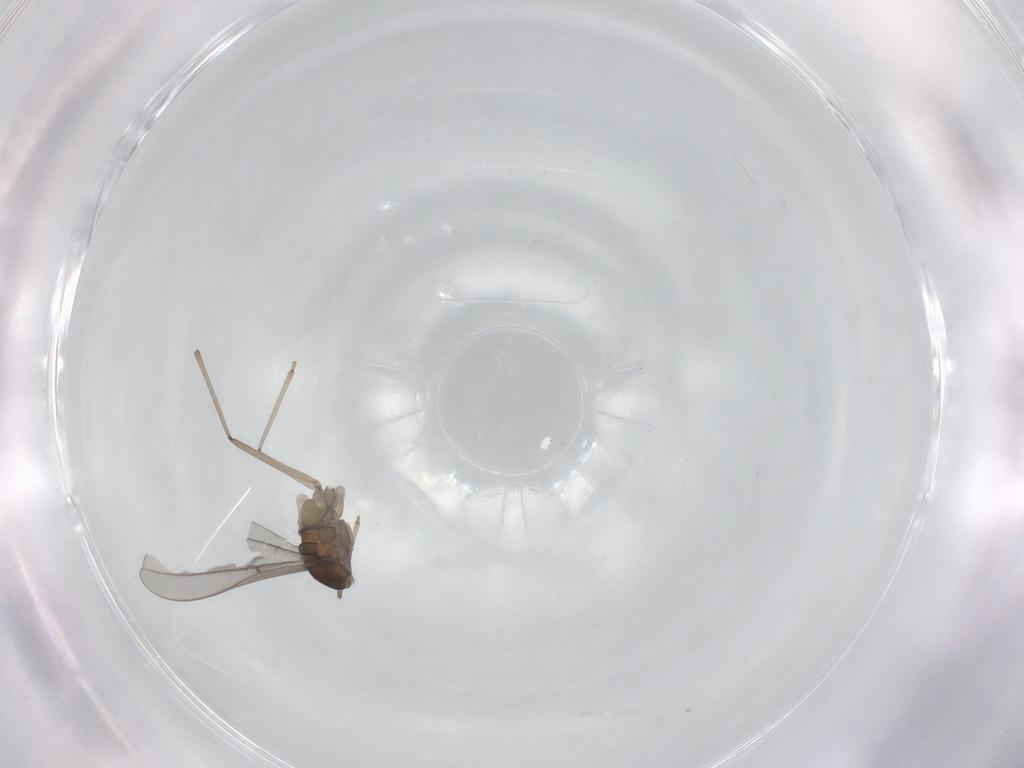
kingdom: Animalia
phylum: Arthropoda
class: Insecta
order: Diptera
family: Cecidomyiidae
